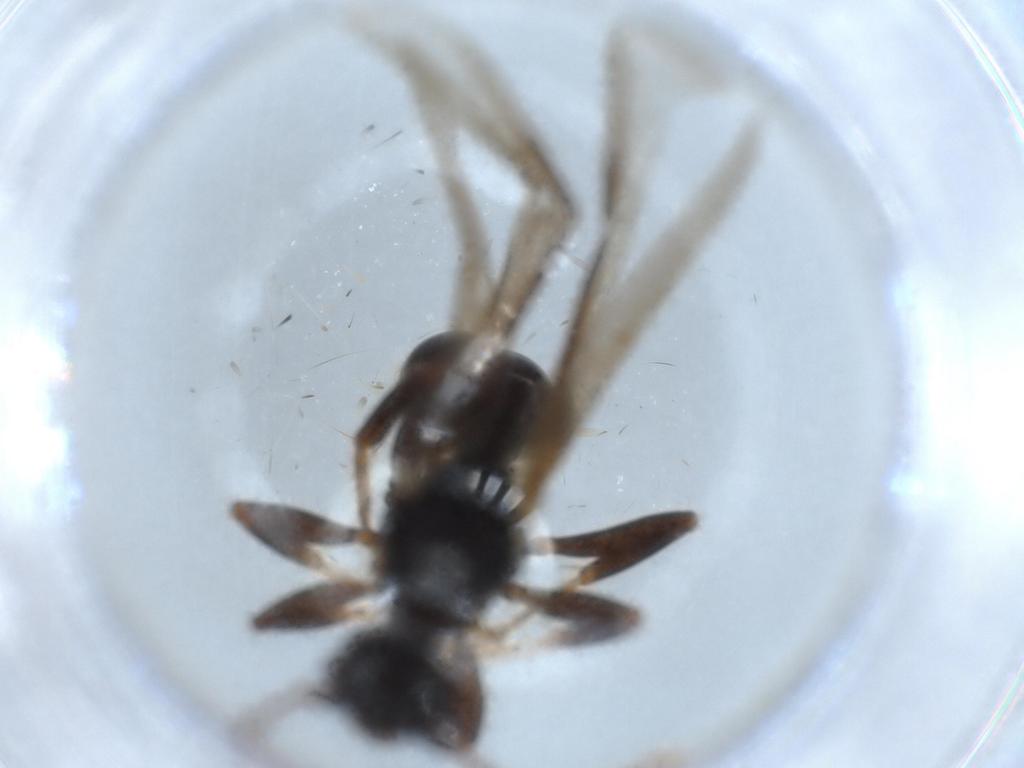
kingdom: Animalia
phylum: Arthropoda
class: Insecta
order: Hymenoptera
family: Formicidae
